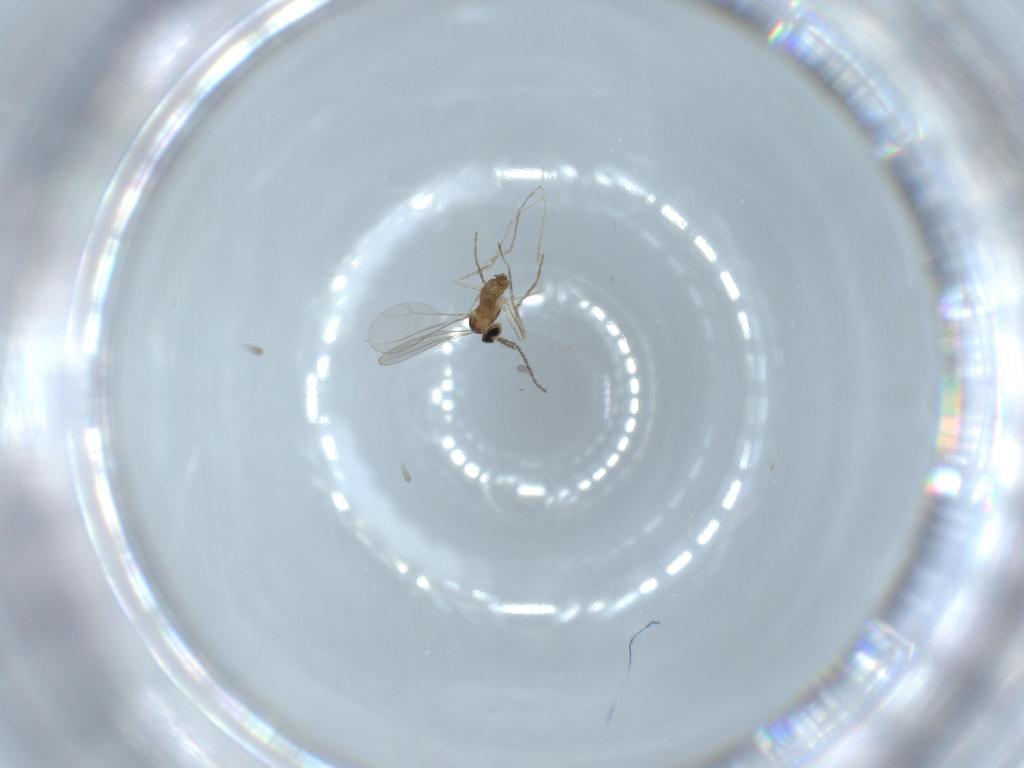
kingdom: Animalia
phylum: Arthropoda
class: Insecta
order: Diptera
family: Cecidomyiidae
